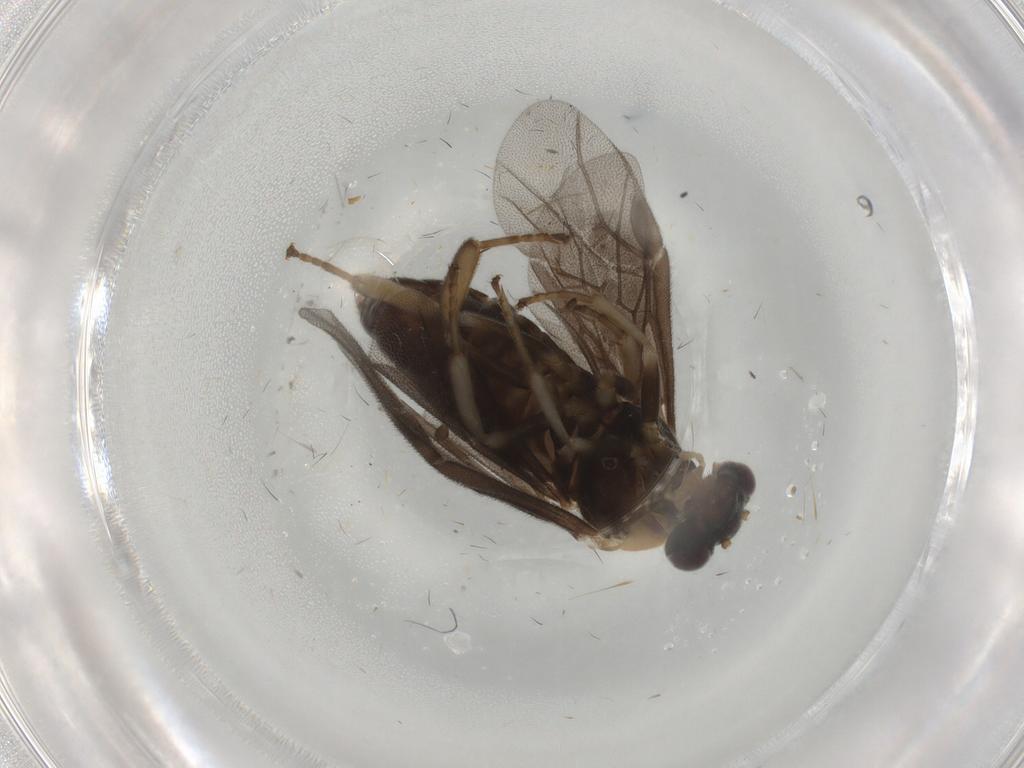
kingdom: Animalia
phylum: Arthropoda
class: Insecta
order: Hymenoptera
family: Argidae
